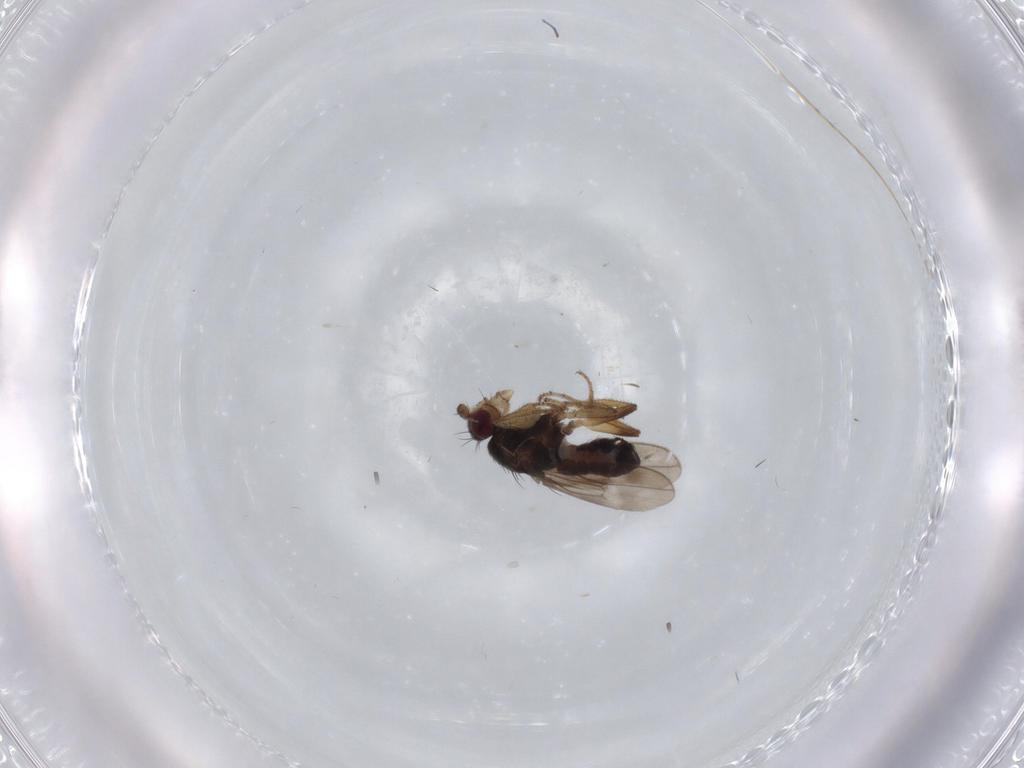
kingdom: Animalia
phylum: Arthropoda
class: Insecta
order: Diptera
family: Sphaeroceridae
